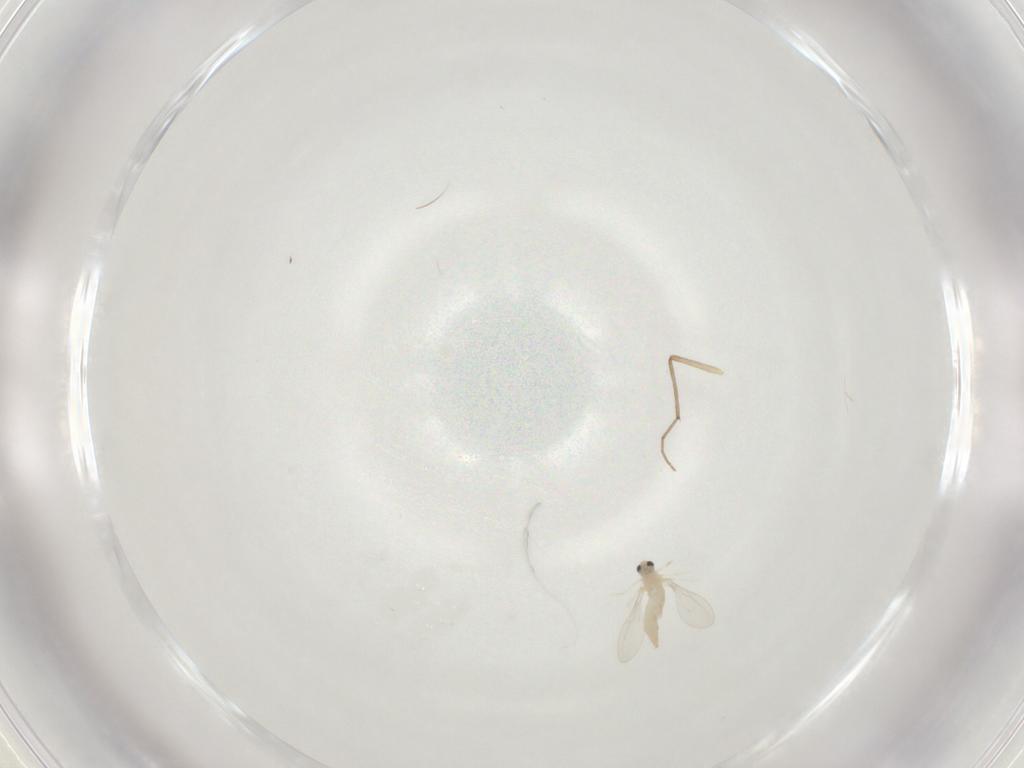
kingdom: Animalia
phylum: Arthropoda
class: Insecta
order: Diptera
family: Cecidomyiidae
